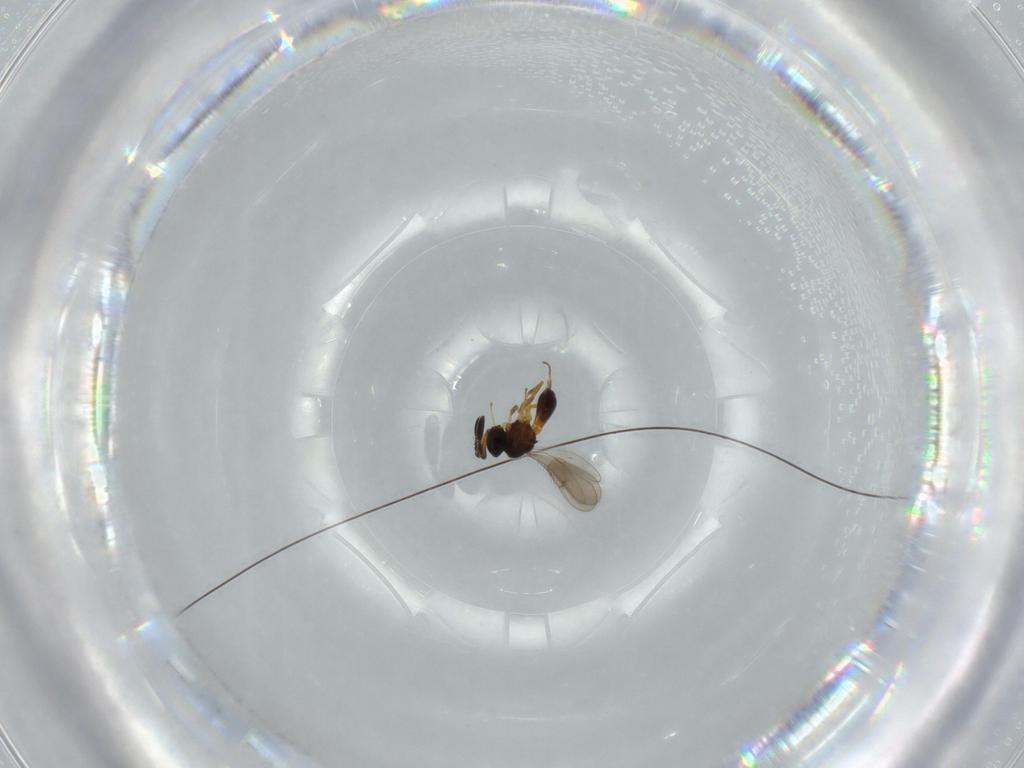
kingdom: Animalia
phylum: Arthropoda
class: Insecta
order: Hymenoptera
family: Scelionidae
